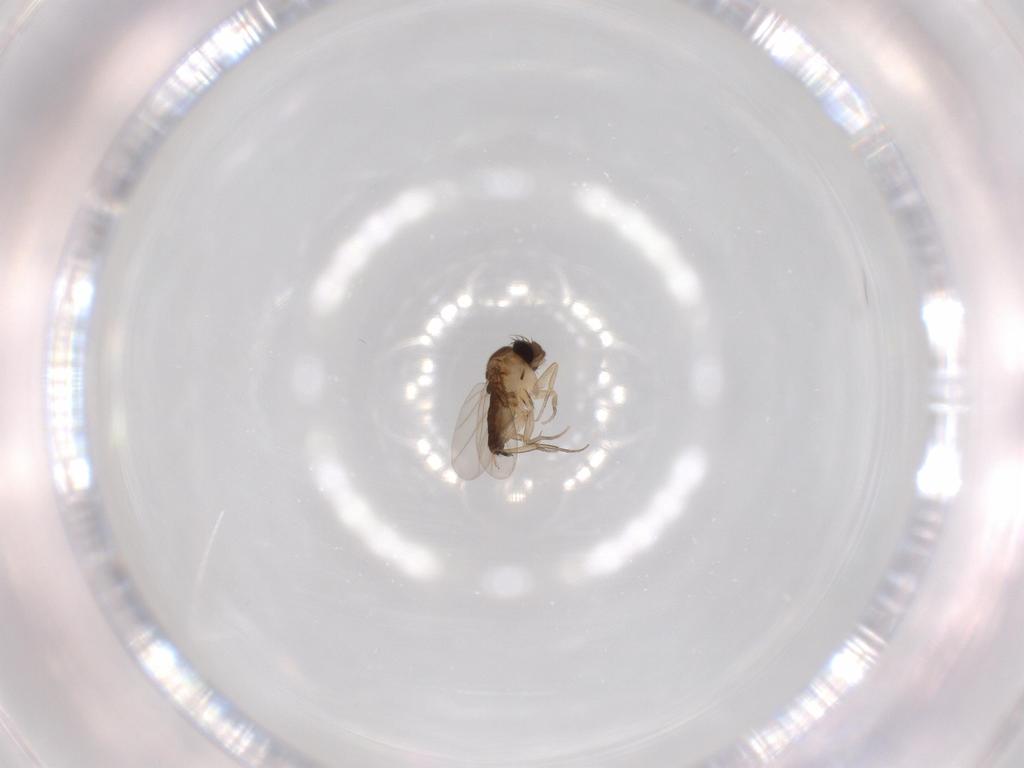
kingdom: Animalia
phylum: Arthropoda
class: Insecta
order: Diptera
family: Phoridae
